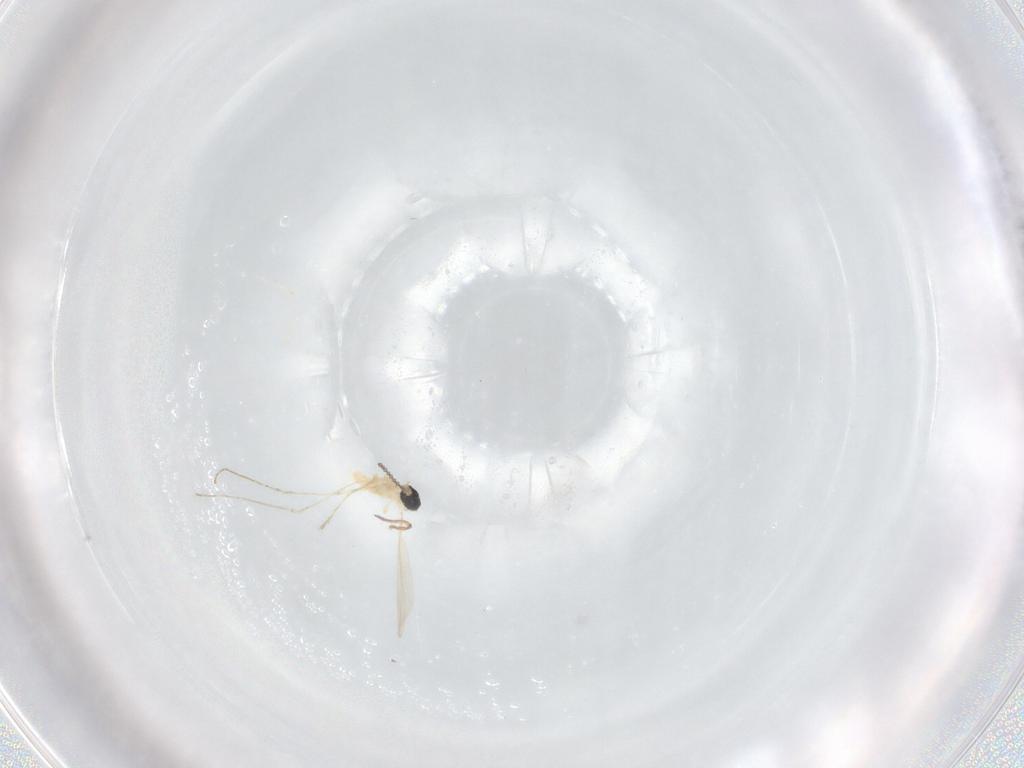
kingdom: Animalia
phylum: Arthropoda
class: Insecta
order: Diptera
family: Cecidomyiidae
